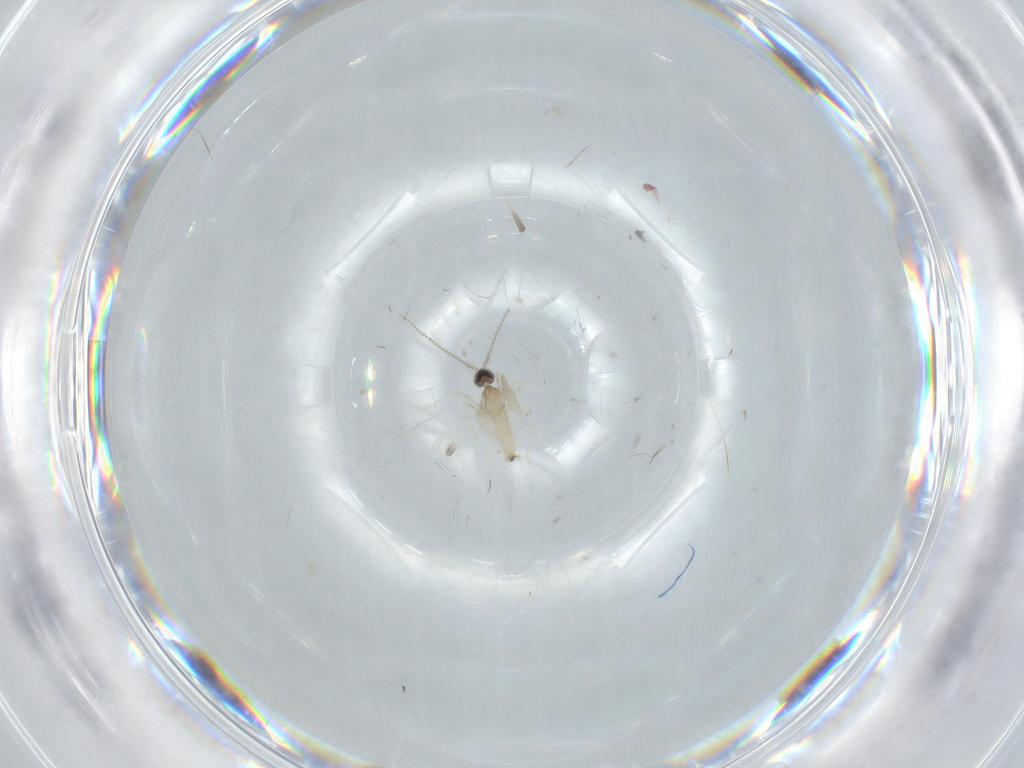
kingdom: Animalia
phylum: Arthropoda
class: Insecta
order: Diptera
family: Cecidomyiidae
